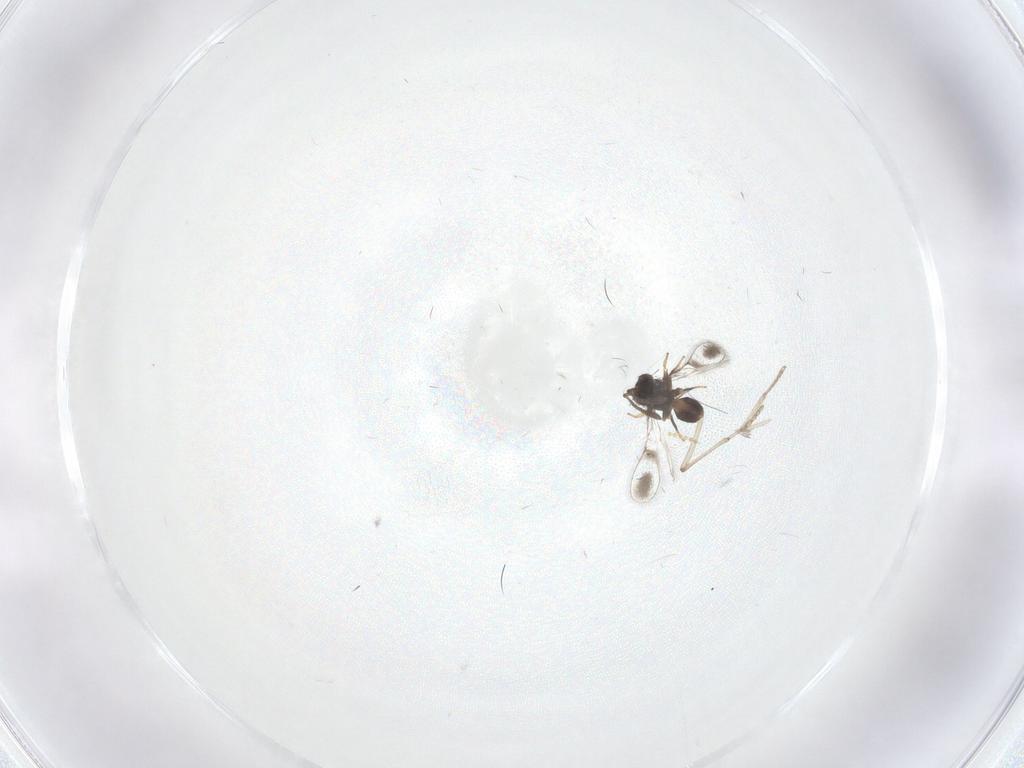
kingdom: Animalia
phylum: Arthropoda
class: Insecta
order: Diptera
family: Psychodidae
